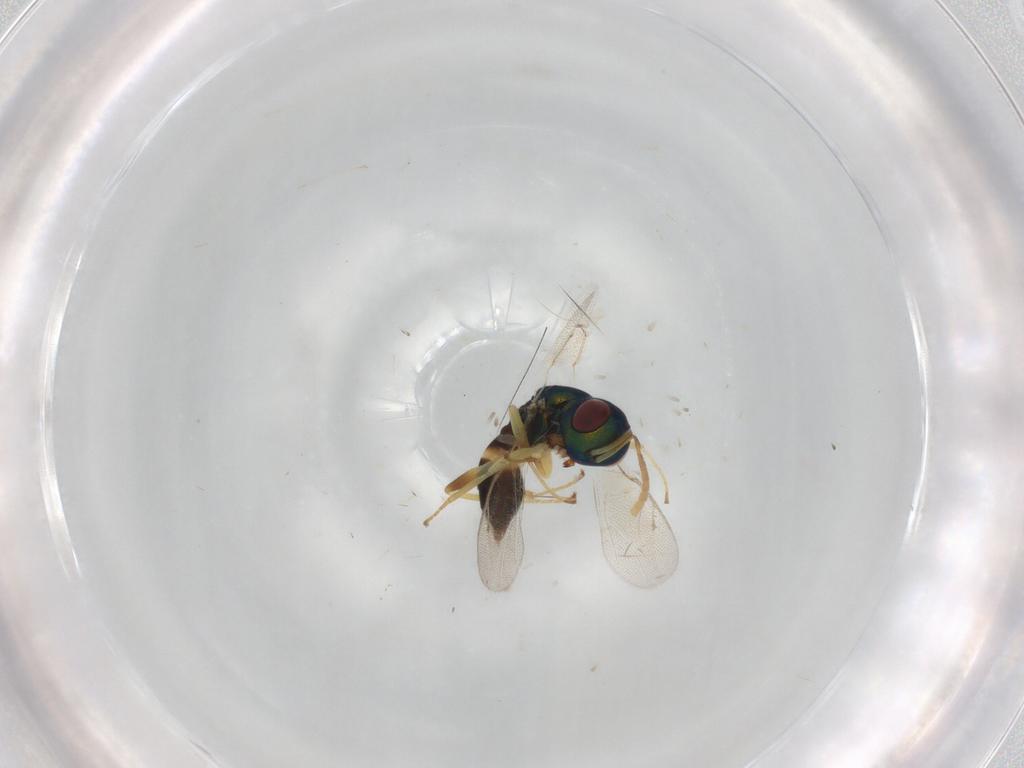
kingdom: Animalia
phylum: Arthropoda
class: Insecta
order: Hymenoptera
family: Pteromalidae
